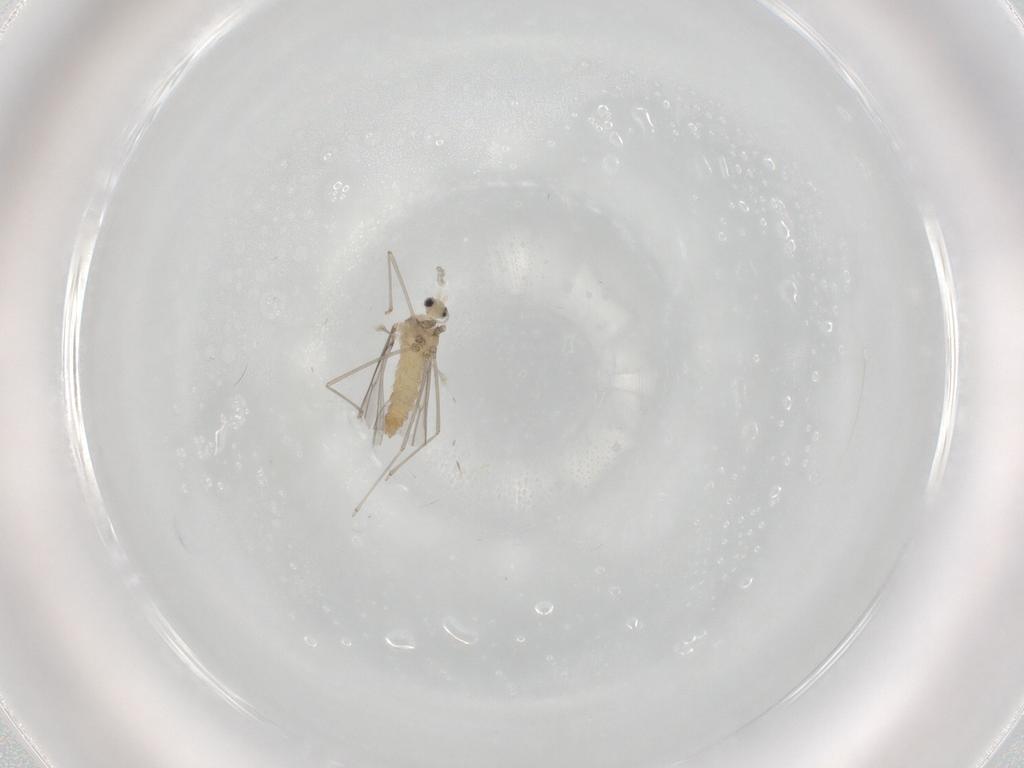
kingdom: Animalia
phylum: Arthropoda
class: Insecta
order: Diptera
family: Cecidomyiidae
